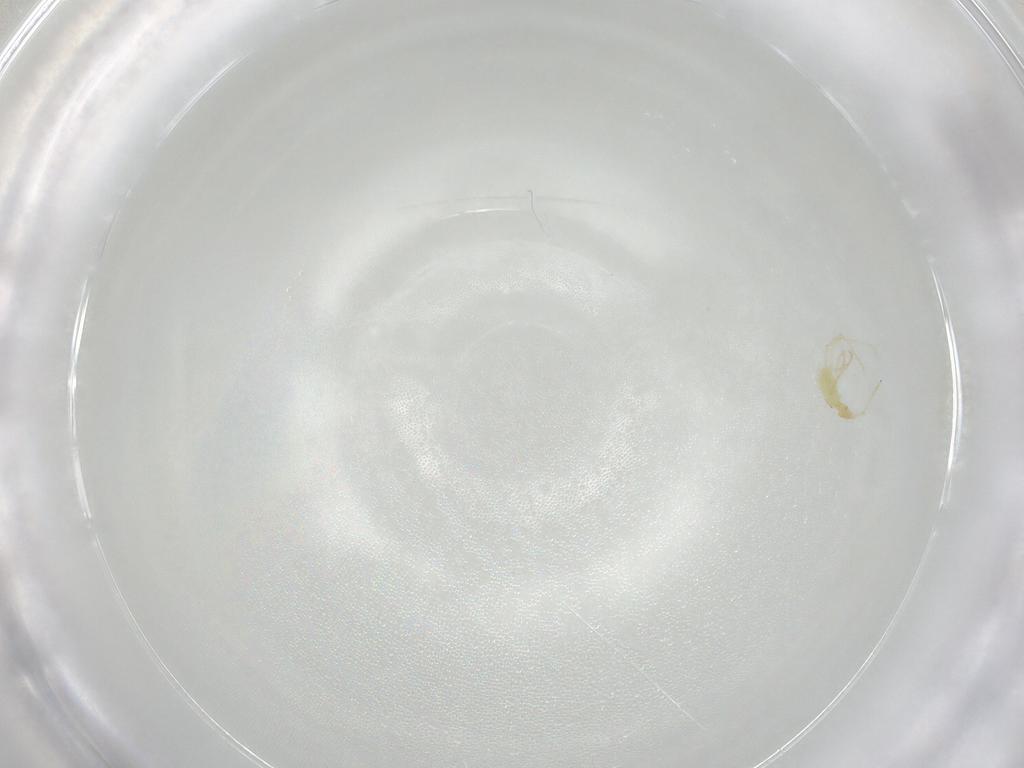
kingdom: Animalia
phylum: Arthropoda
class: Arachnida
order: Trombidiformes
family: Erythraeidae
